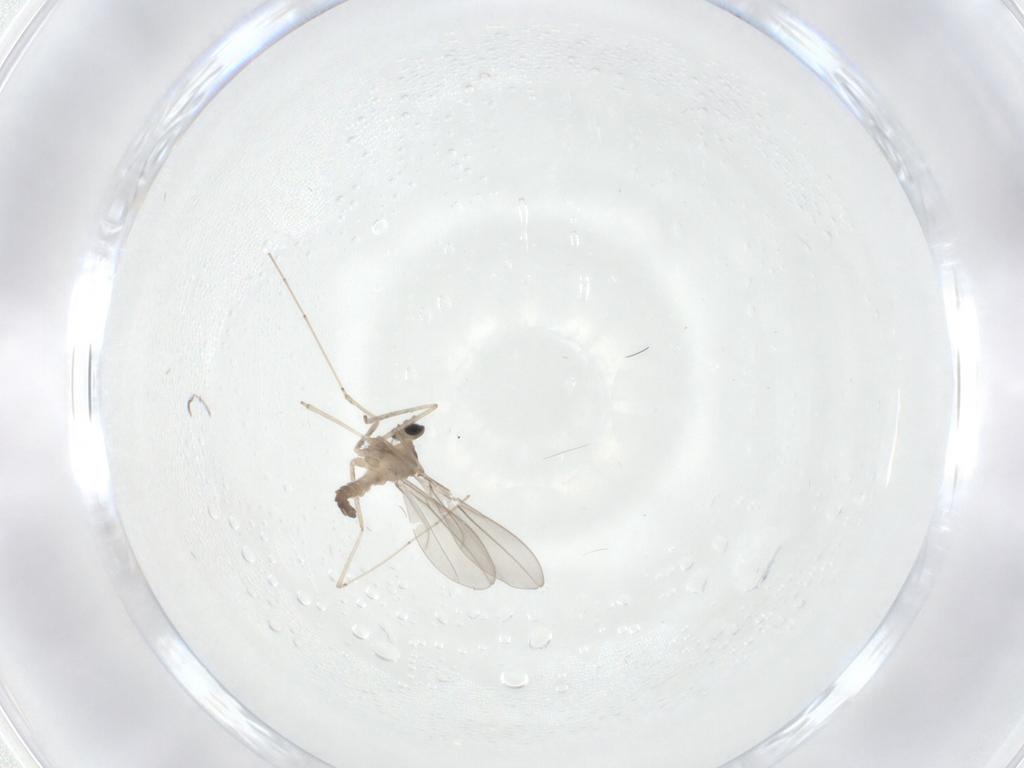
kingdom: Animalia
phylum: Arthropoda
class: Insecta
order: Diptera
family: Cecidomyiidae
